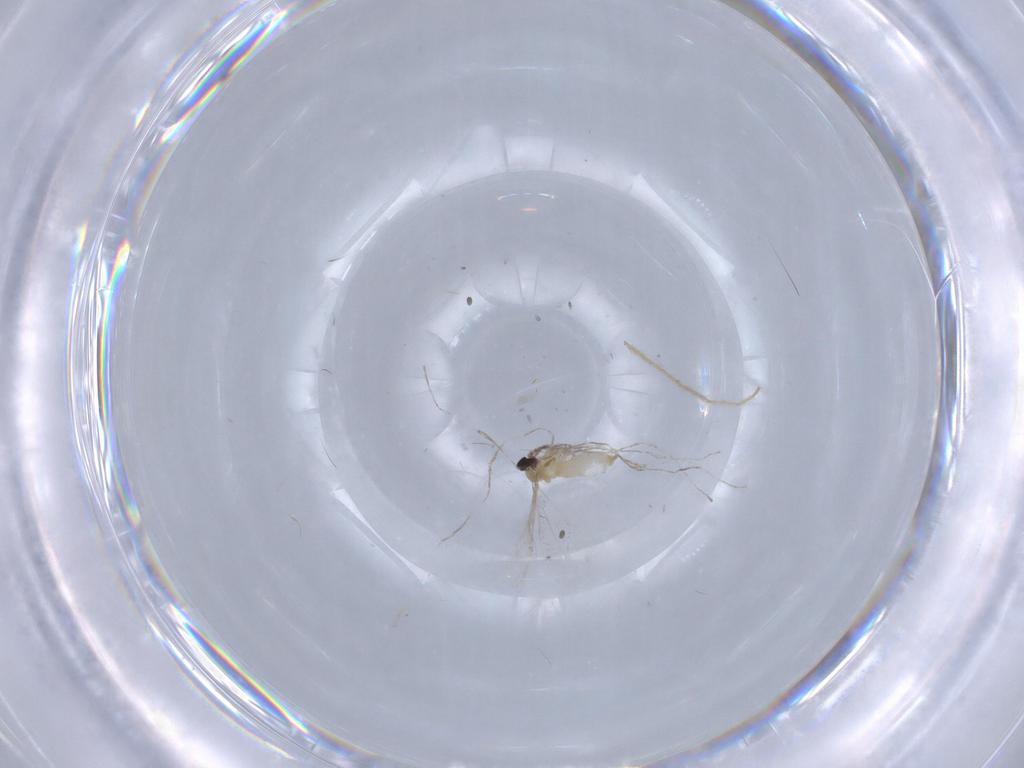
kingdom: Animalia
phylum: Arthropoda
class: Insecta
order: Diptera
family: Cecidomyiidae
